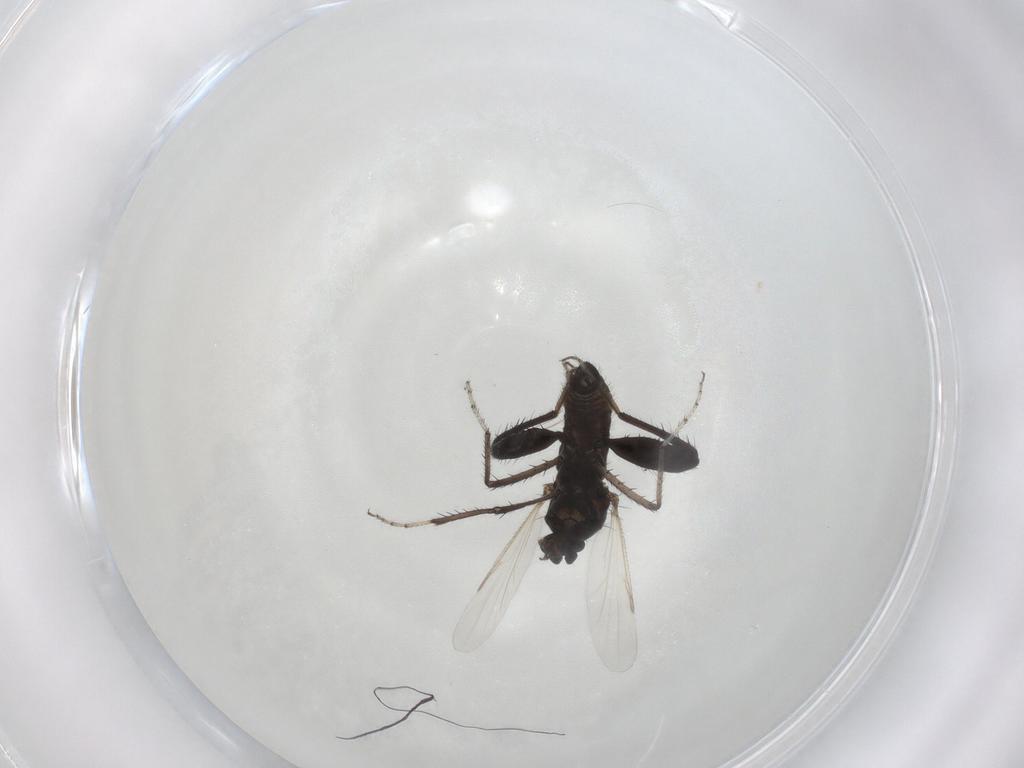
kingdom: Animalia
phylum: Arthropoda
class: Insecta
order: Diptera
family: Ceratopogonidae
